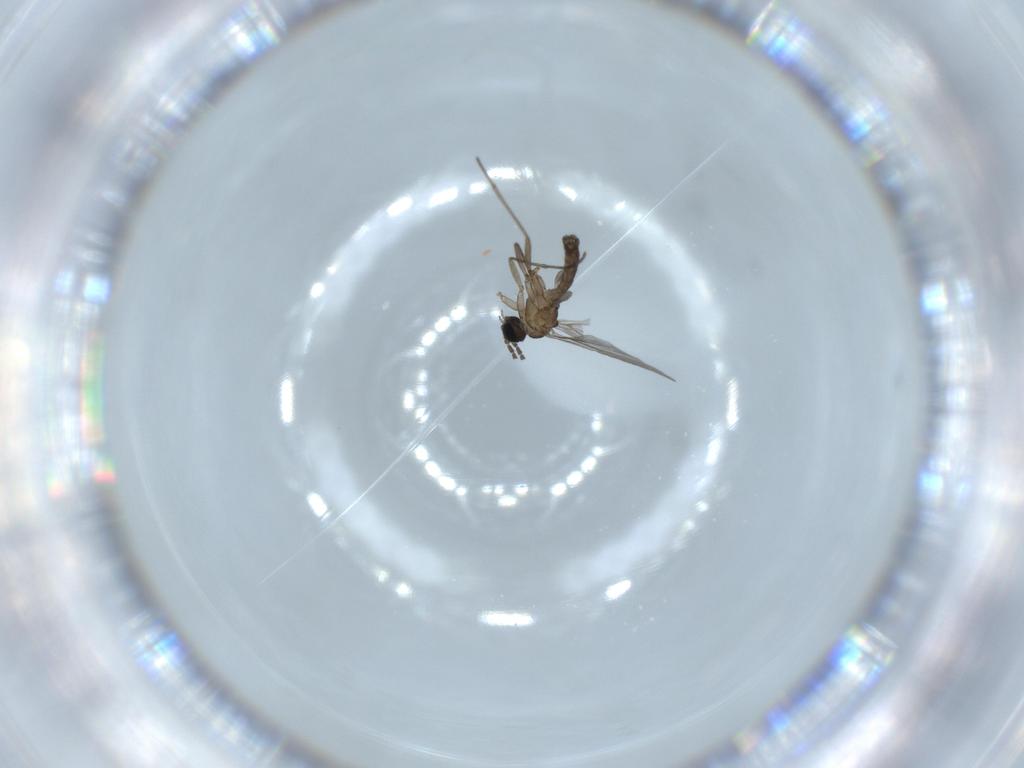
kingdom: Animalia
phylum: Arthropoda
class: Insecta
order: Diptera
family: Sciaridae
